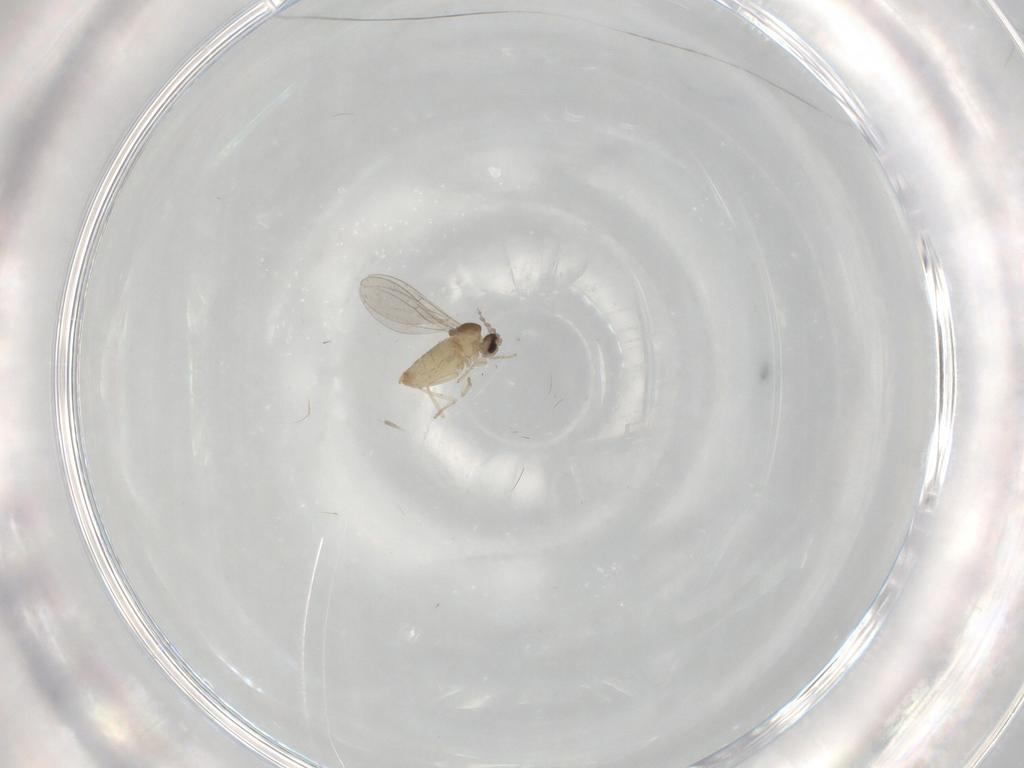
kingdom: Animalia
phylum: Arthropoda
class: Insecta
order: Diptera
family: Cecidomyiidae
